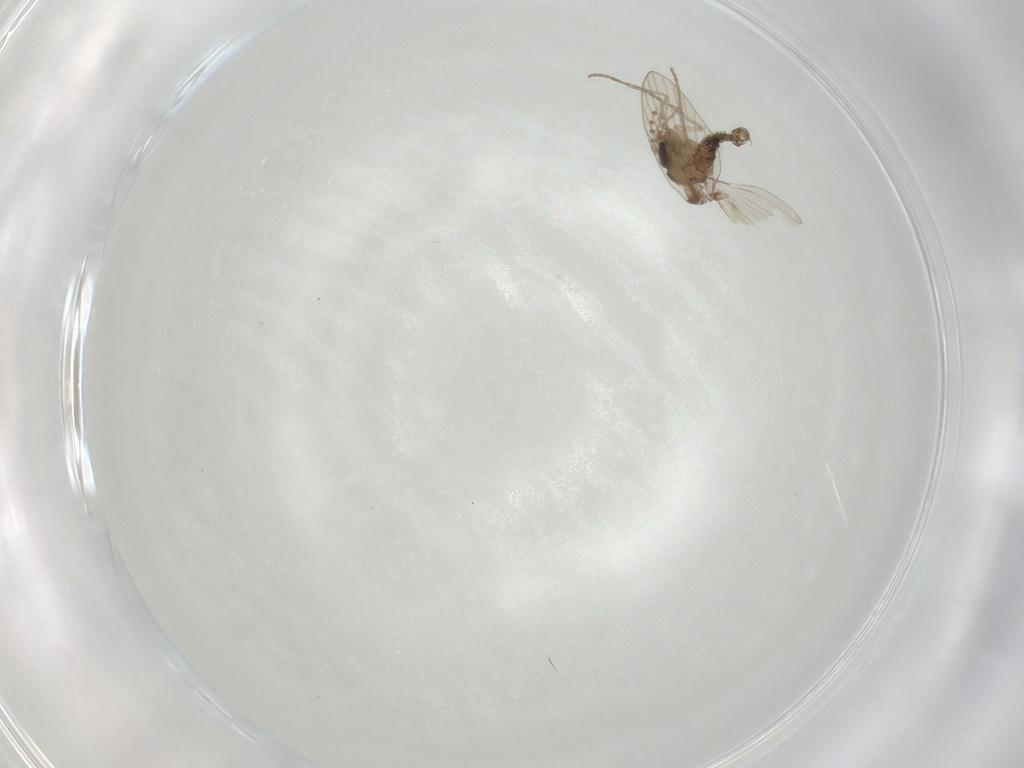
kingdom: Animalia
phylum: Arthropoda
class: Insecta
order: Diptera
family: Psychodidae
